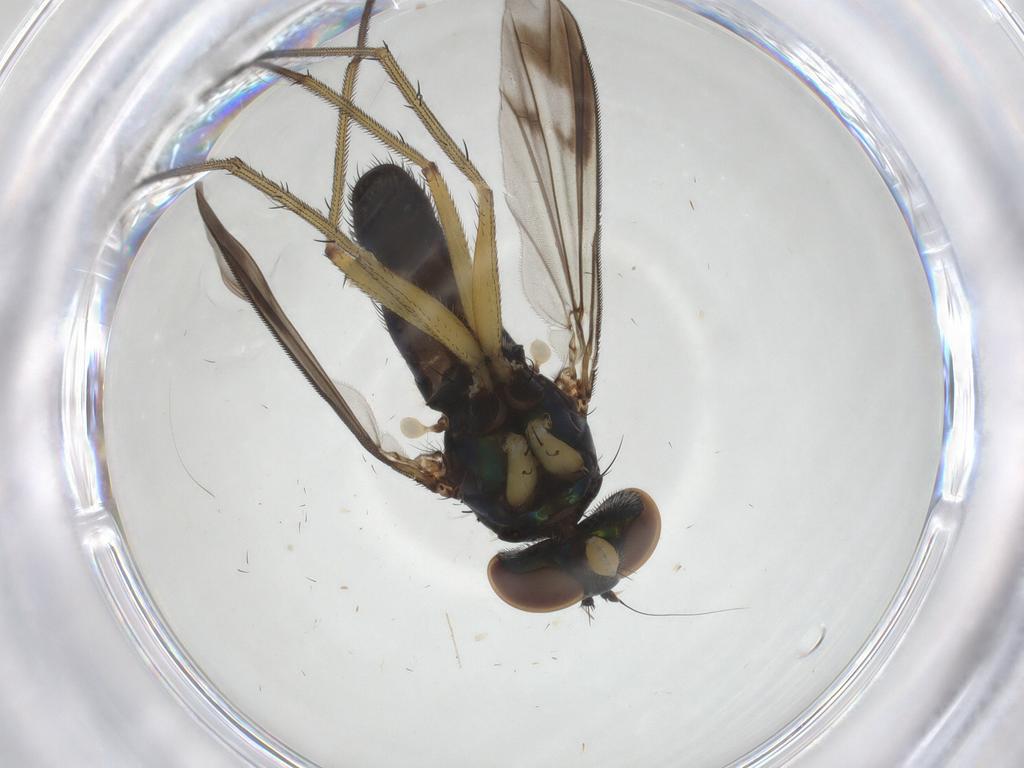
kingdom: Animalia
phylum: Arthropoda
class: Insecta
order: Diptera
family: Dolichopodidae
